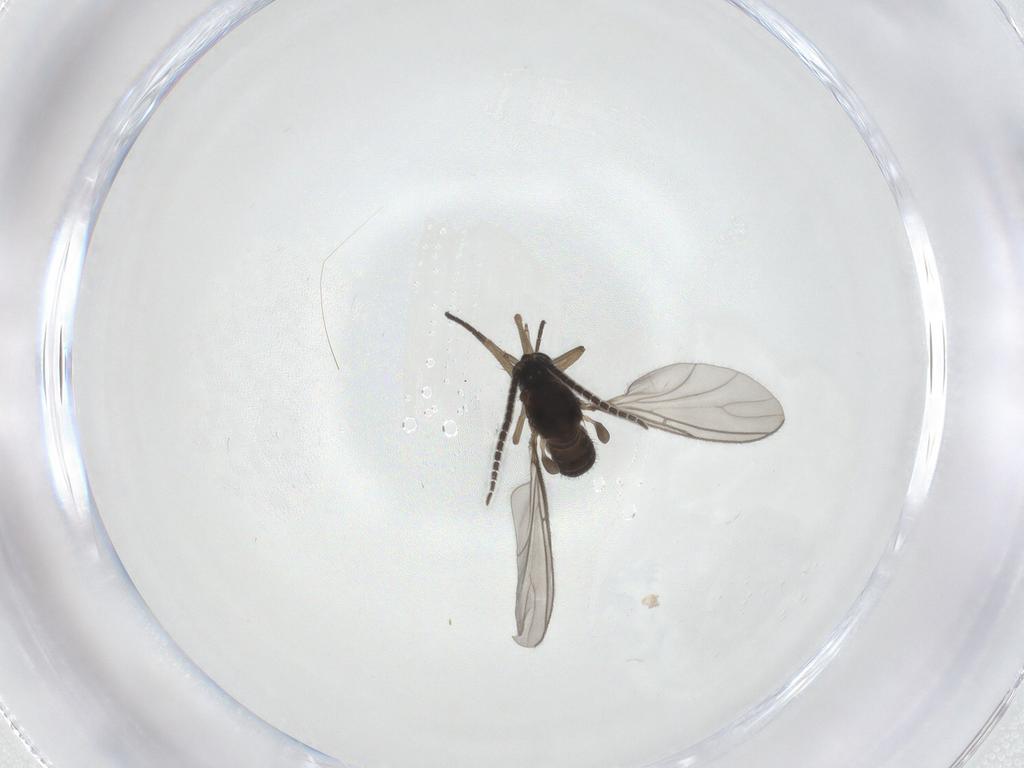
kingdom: Animalia
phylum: Arthropoda
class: Insecta
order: Diptera
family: Sciaridae
